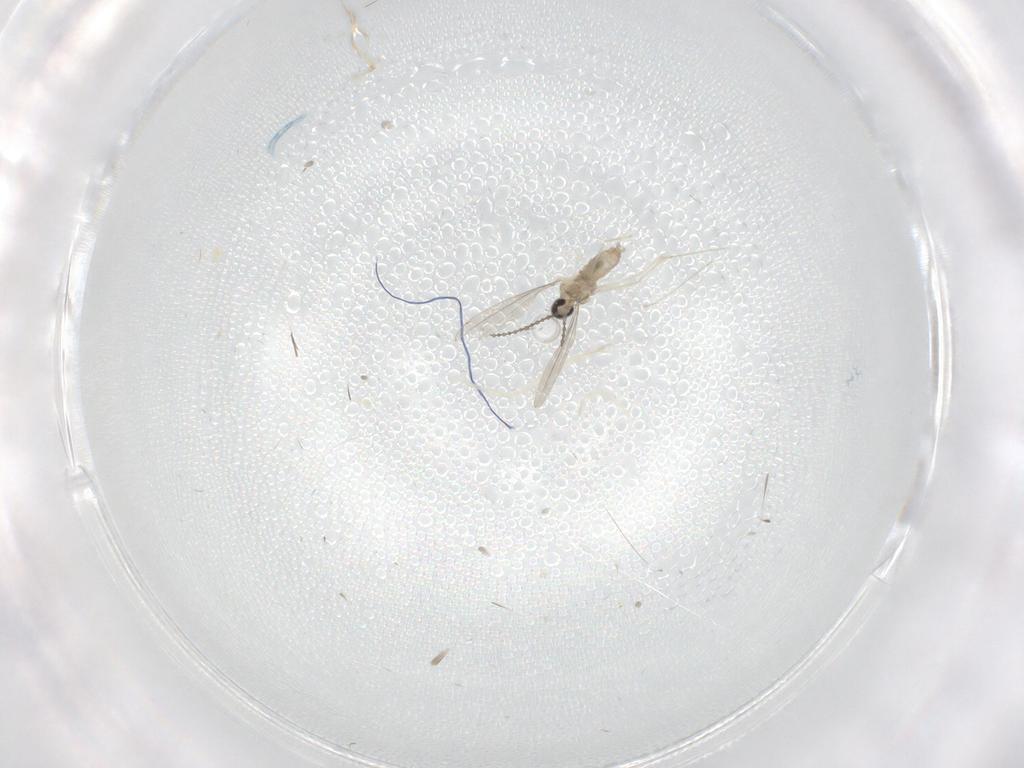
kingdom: Animalia
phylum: Arthropoda
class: Insecta
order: Diptera
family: Cecidomyiidae
